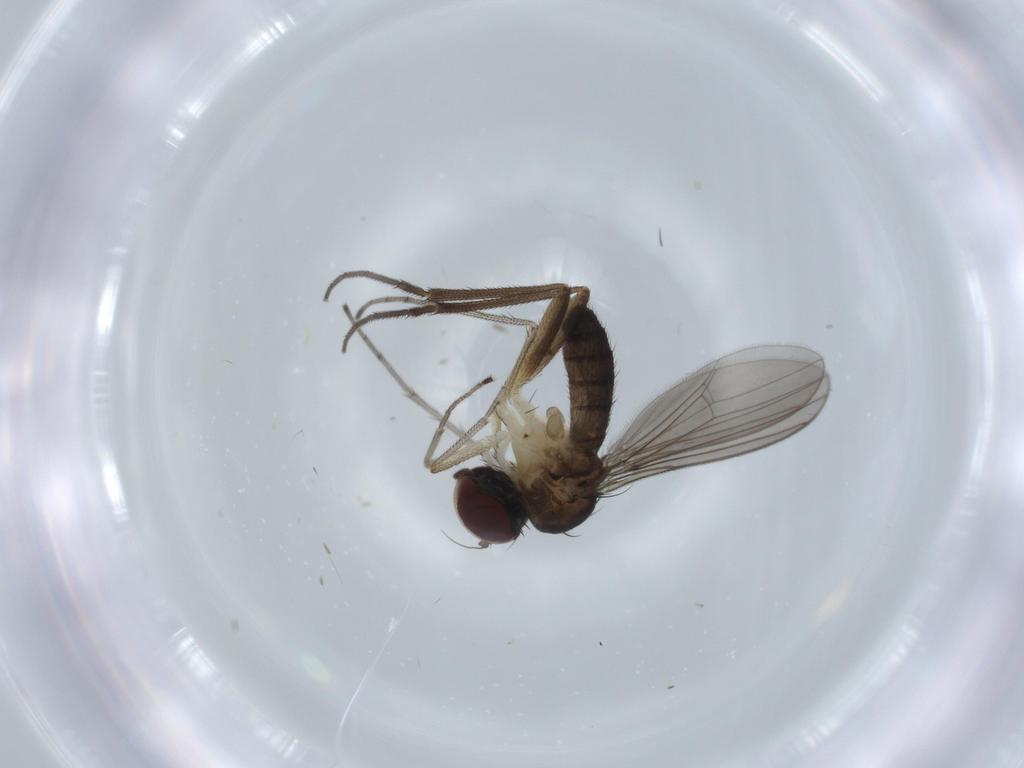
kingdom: Animalia
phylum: Arthropoda
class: Insecta
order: Diptera
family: Dolichopodidae
